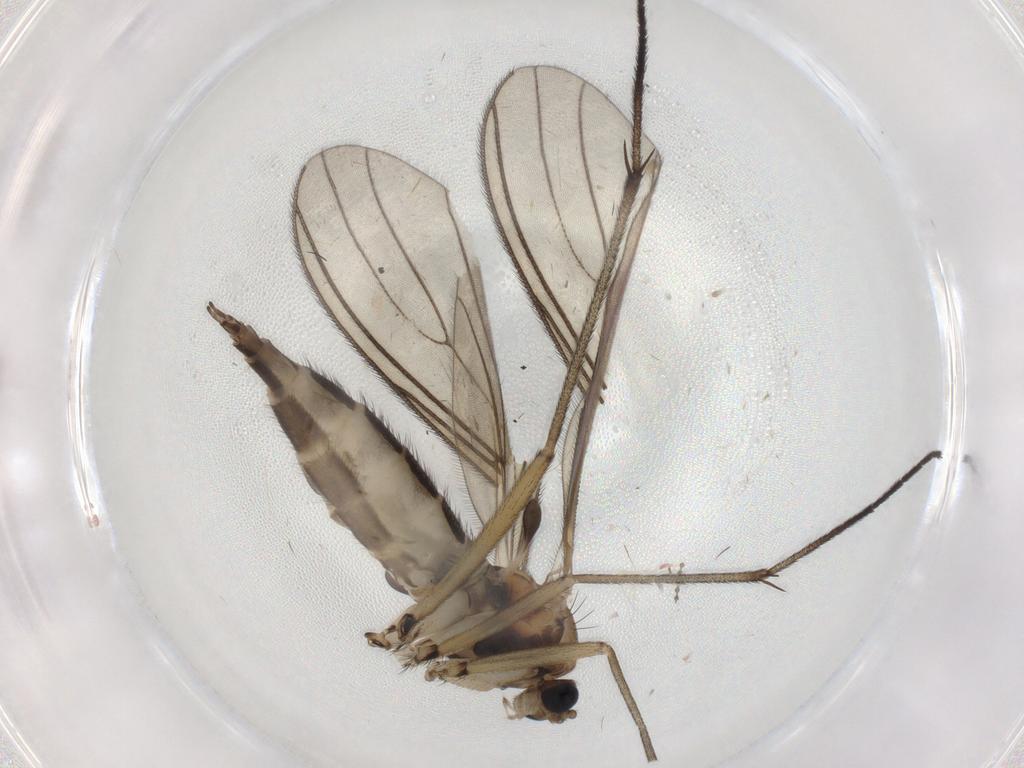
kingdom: Animalia
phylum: Arthropoda
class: Insecta
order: Diptera
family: Sciaridae
